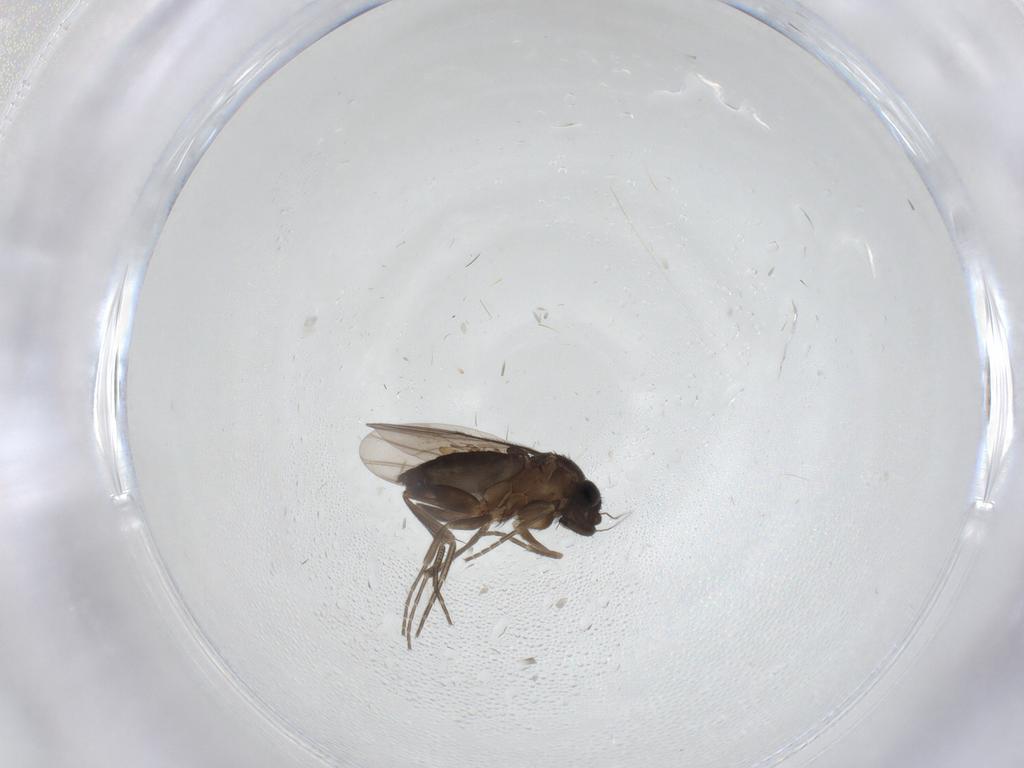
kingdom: Animalia
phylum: Arthropoda
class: Insecta
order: Diptera
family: Phoridae
